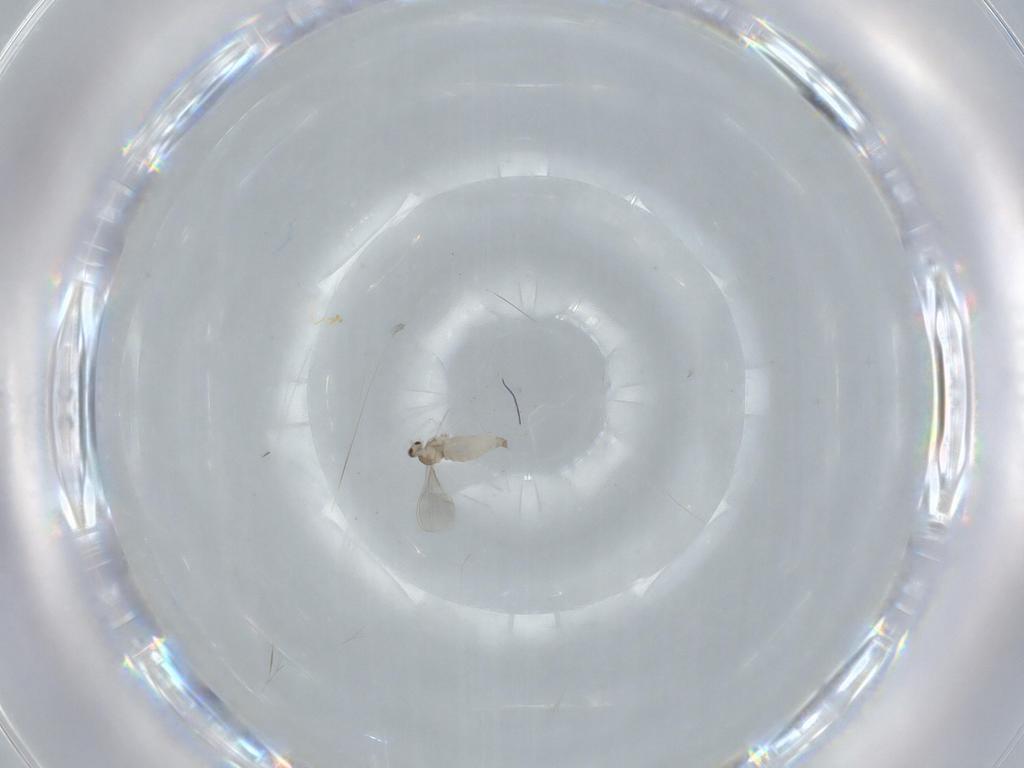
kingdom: Animalia
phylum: Arthropoda
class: Insecta
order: Diptera
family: Cecidomyiidae
